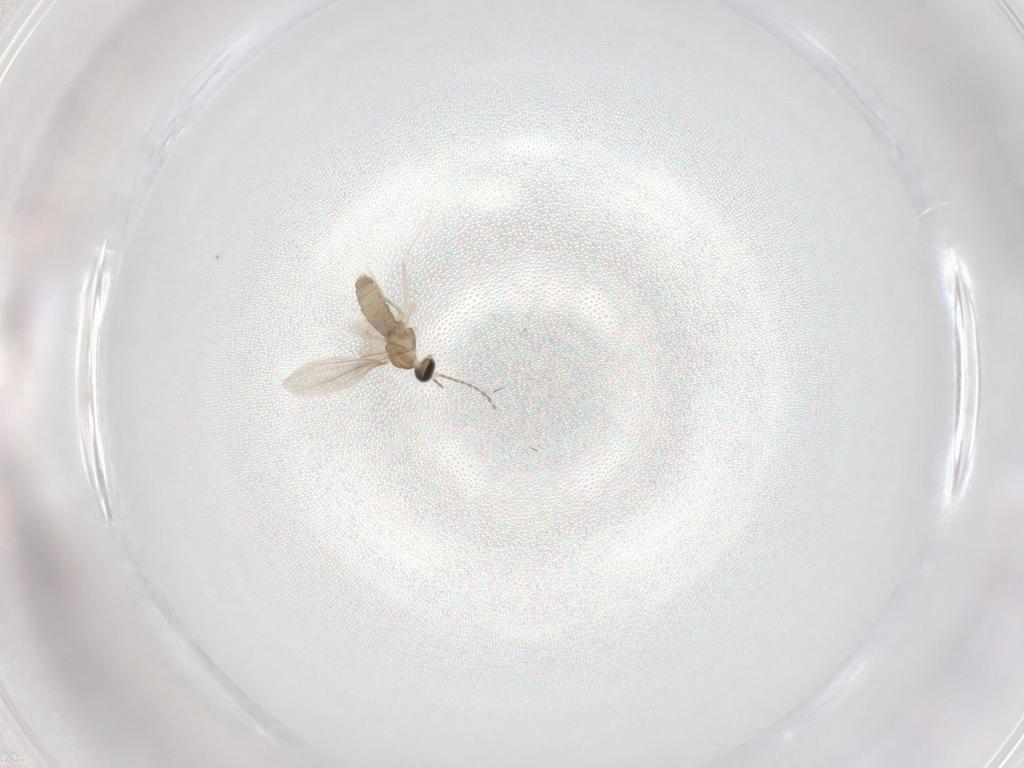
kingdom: Animalia
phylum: Arthropoda
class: Insecta
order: Diptera
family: Cecidomyiidae
